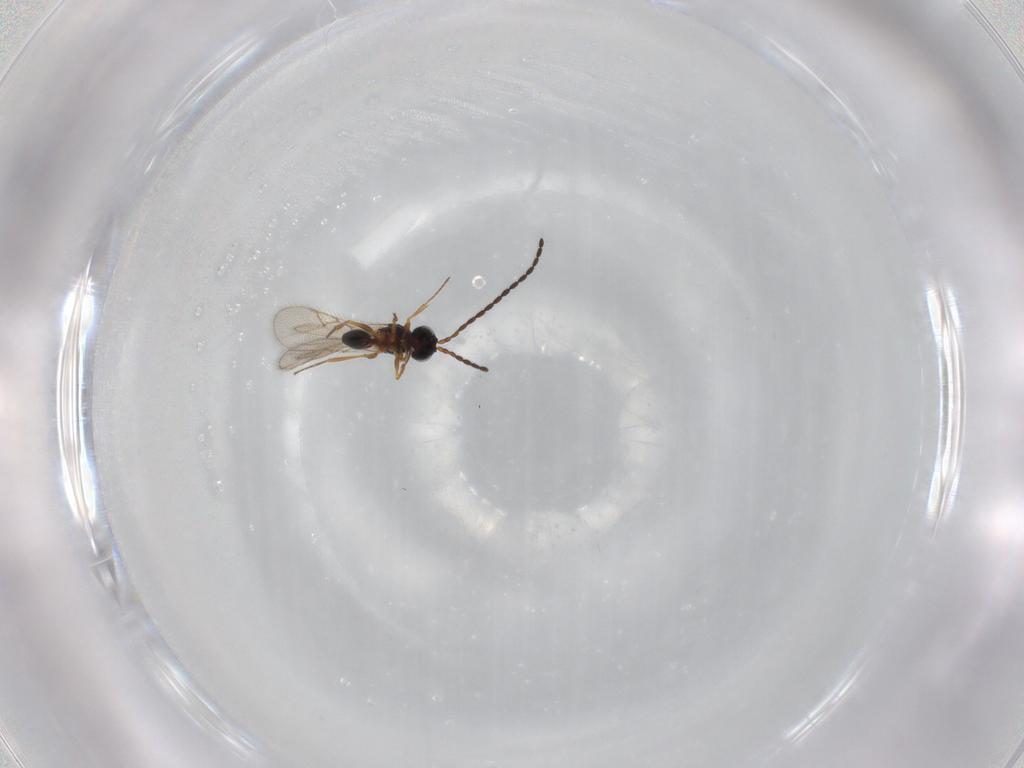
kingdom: Animalia
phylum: Arthropoda
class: Insecta
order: Hymenoptera
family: Figitidae
